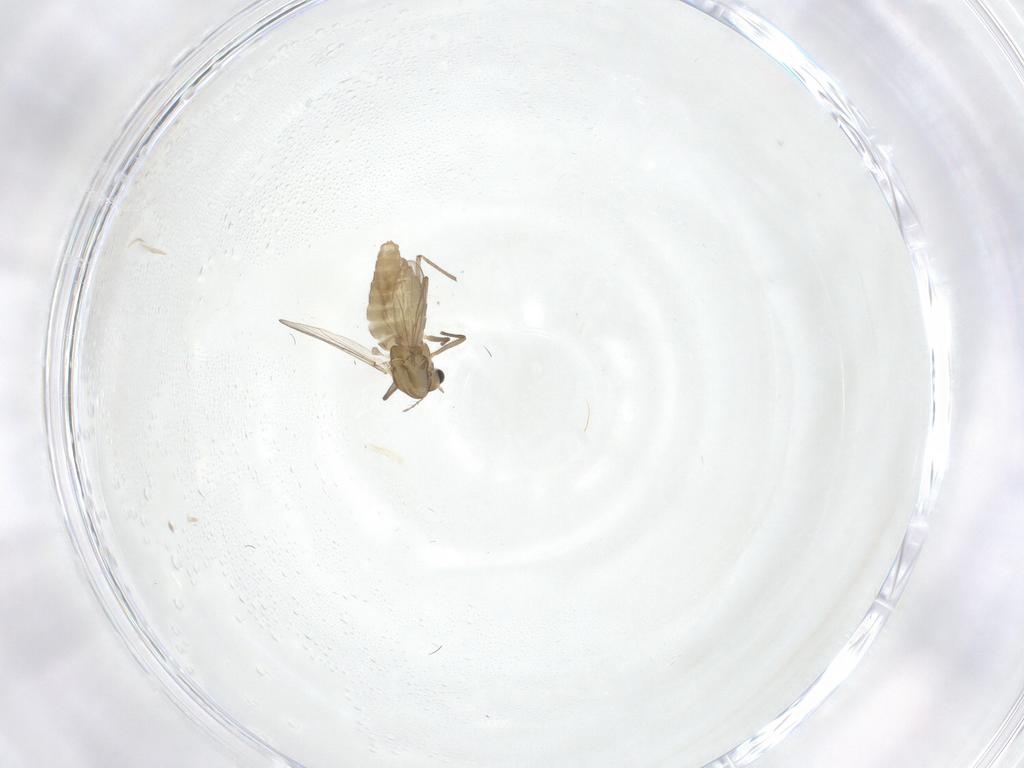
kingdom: Animalia
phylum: Arthropoda
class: Insecta
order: Diptera
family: Chironomidae
